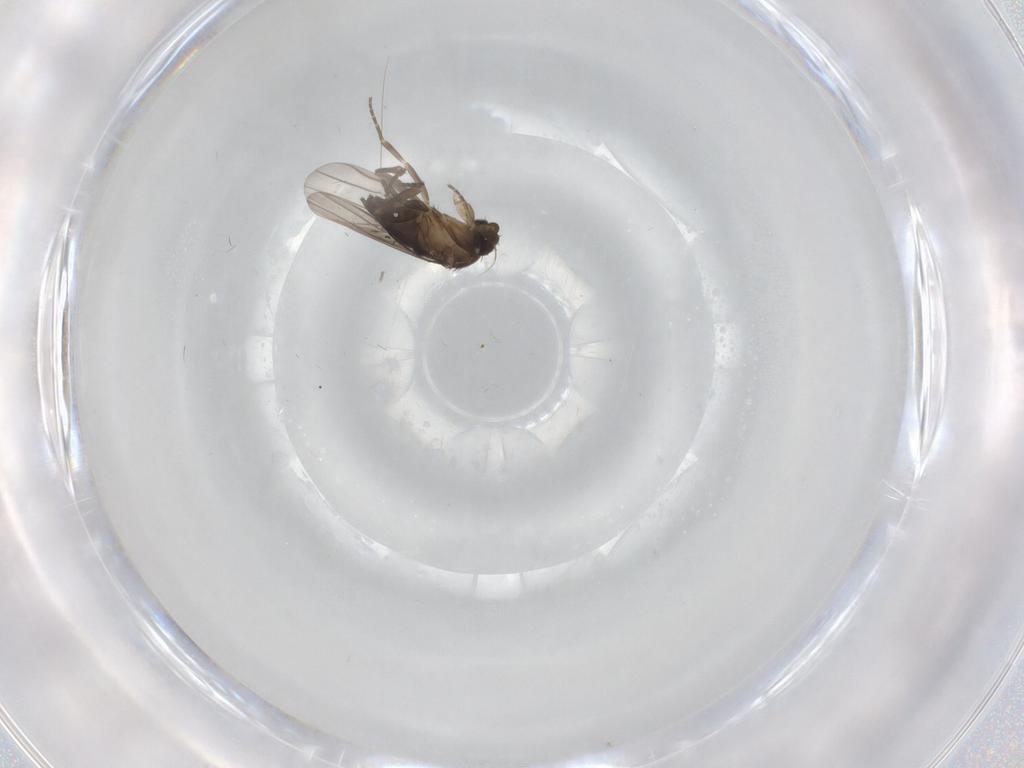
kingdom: Animalia
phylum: Arthropoda
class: Insecta
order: Diptera
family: Phoridae
